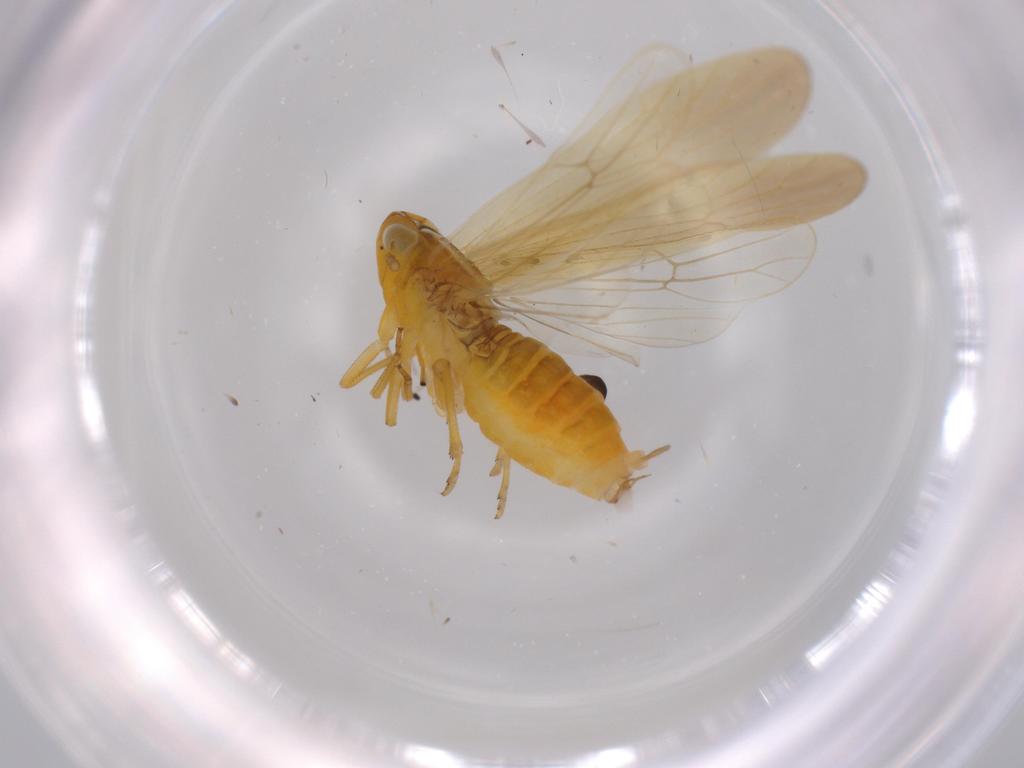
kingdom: Animalia
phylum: Arthropoda
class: Insecta
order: Hemiptera
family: Delphacidae
